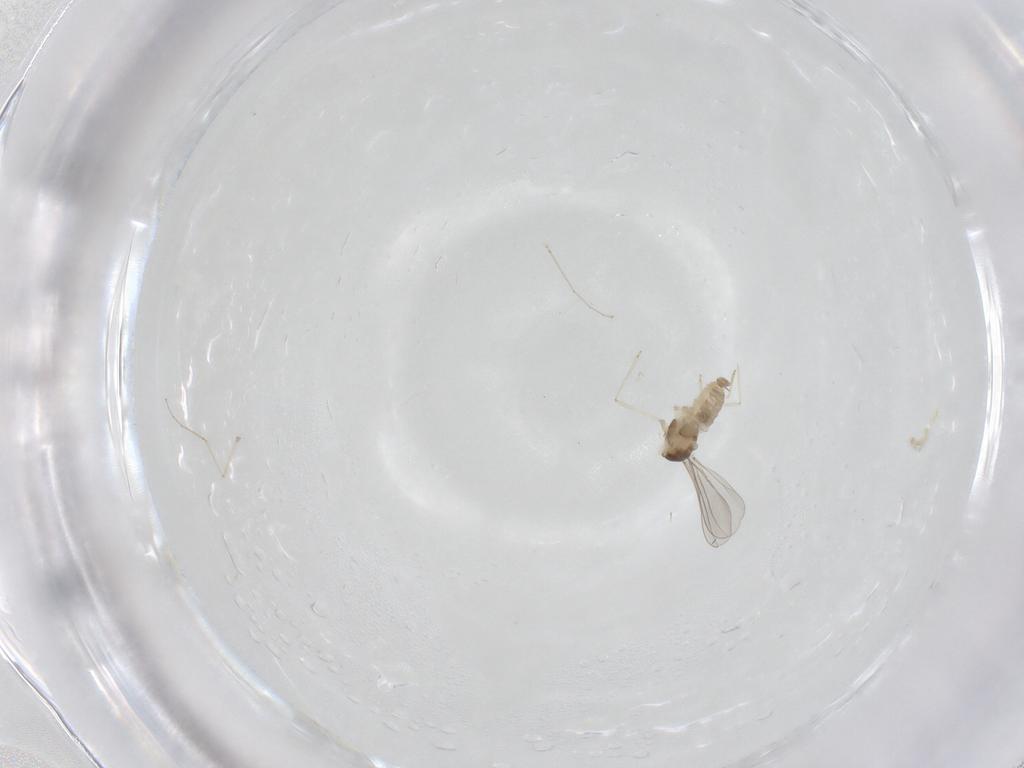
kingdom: Animalia
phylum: Arthropoda
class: Insecta
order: Diptera
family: Cecidomyiidae
